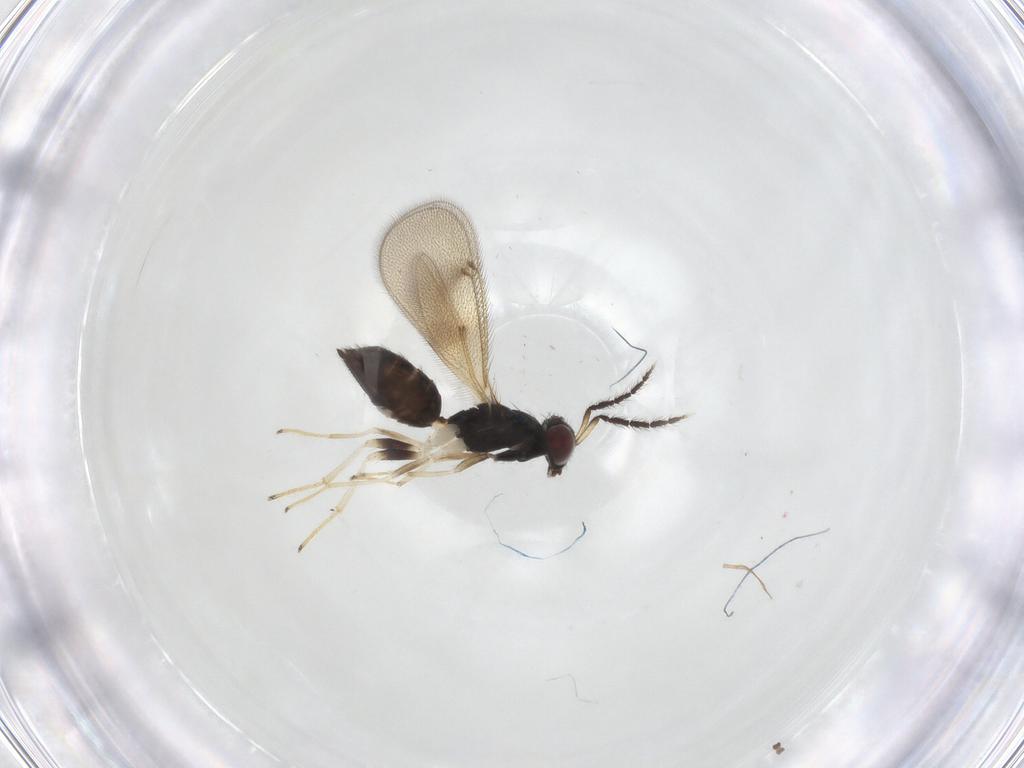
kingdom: Animalia
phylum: Arthropoda
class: Insecta
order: Hymenoptera
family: Eulophidae
